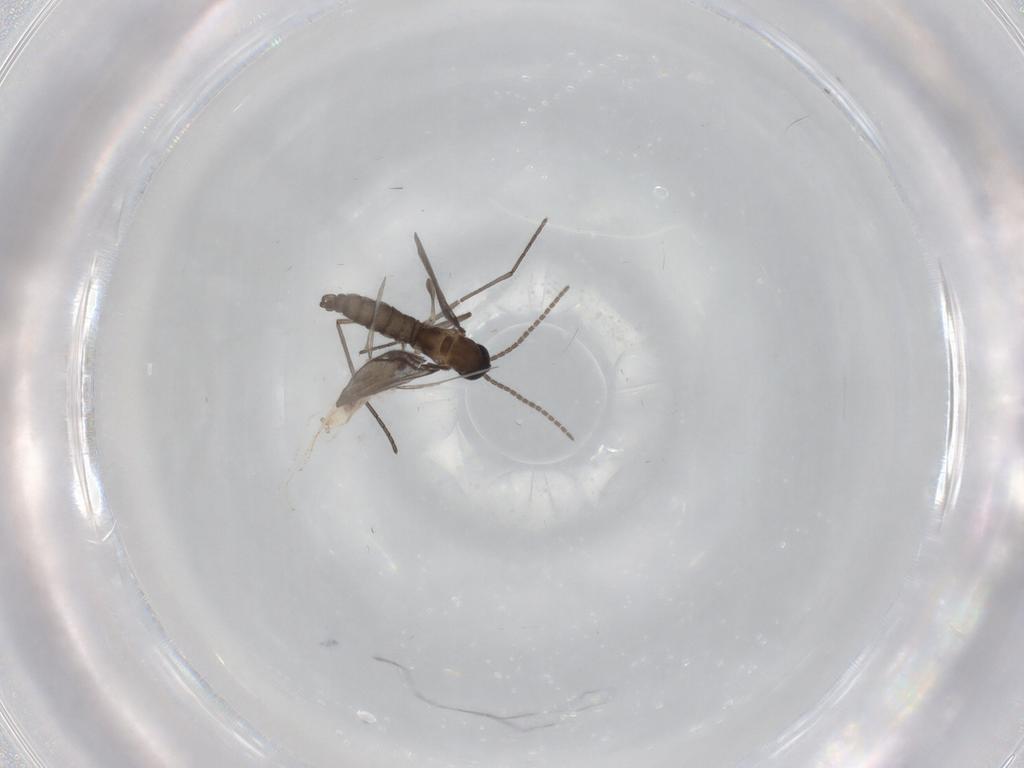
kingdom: Animalia
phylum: Arthropoda
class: Insecta
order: Diptera
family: Sciaridae
